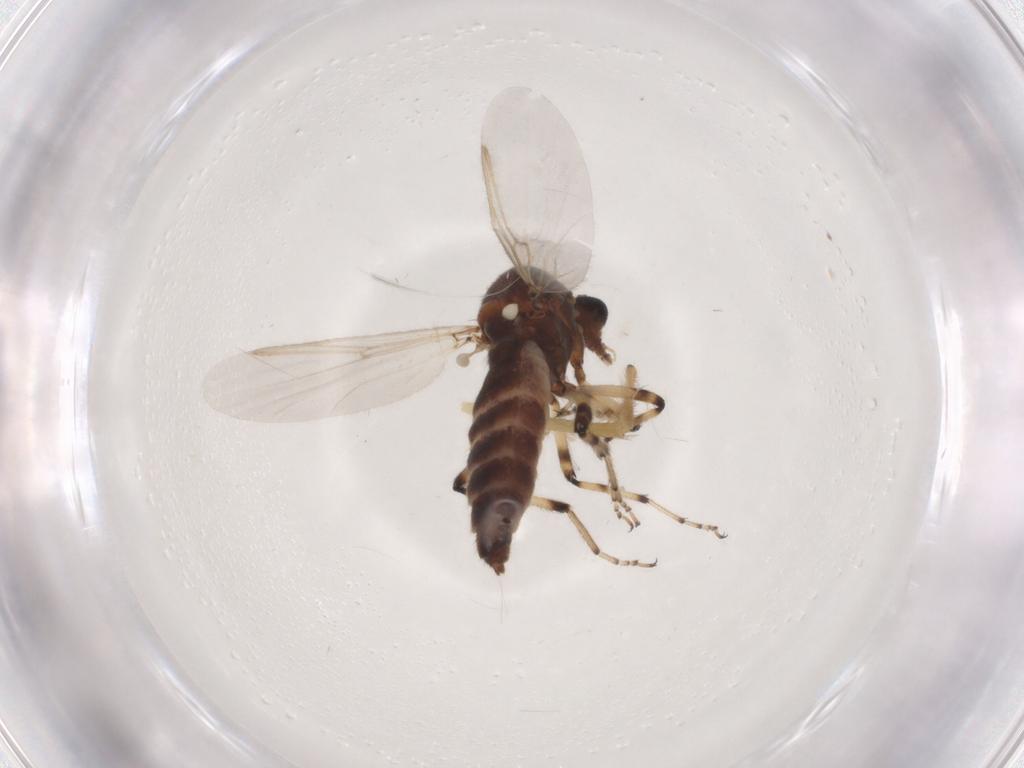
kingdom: Animalia
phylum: Arthropoda
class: Insecta
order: Diptera
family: Ceratopogonidae
